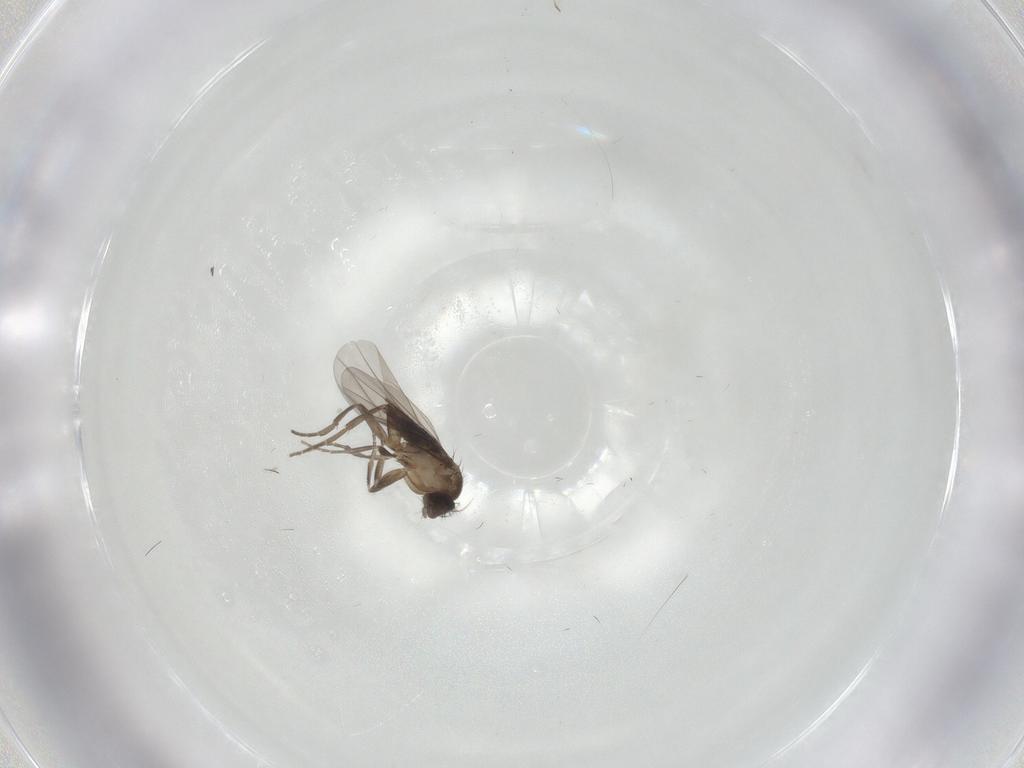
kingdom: Animalia
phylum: Arthropoda
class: Insecta
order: Diptera
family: Phoridae
